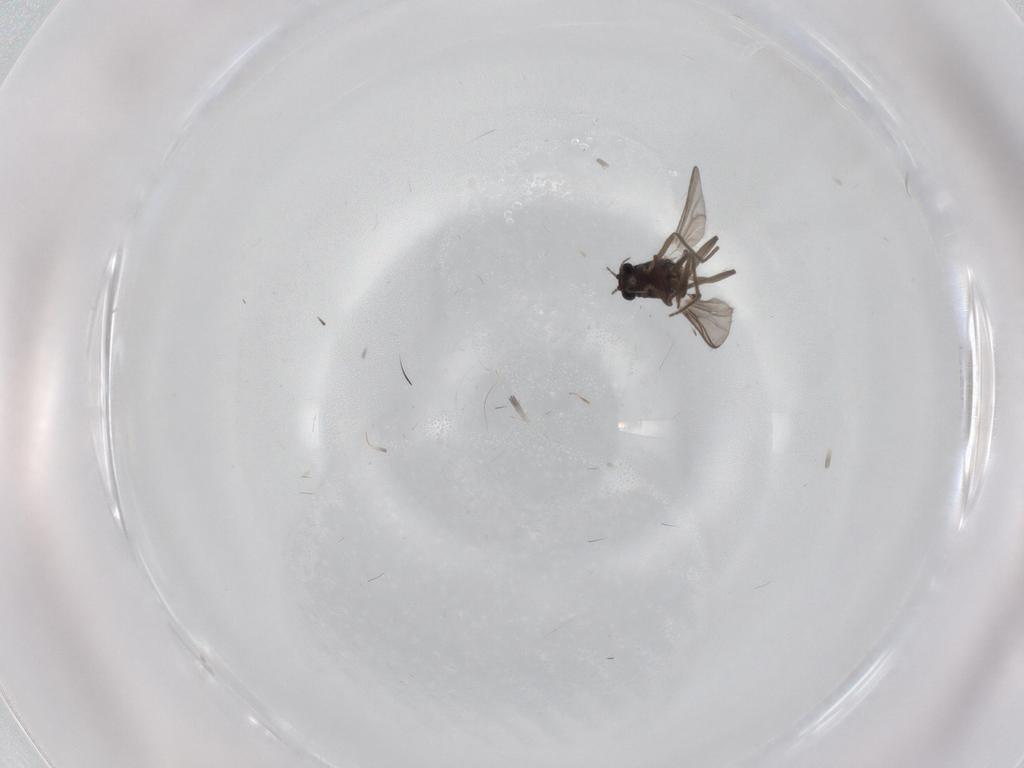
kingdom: Animalia
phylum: Arthropoda
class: Insecta
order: Diptera
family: Chironomidae
